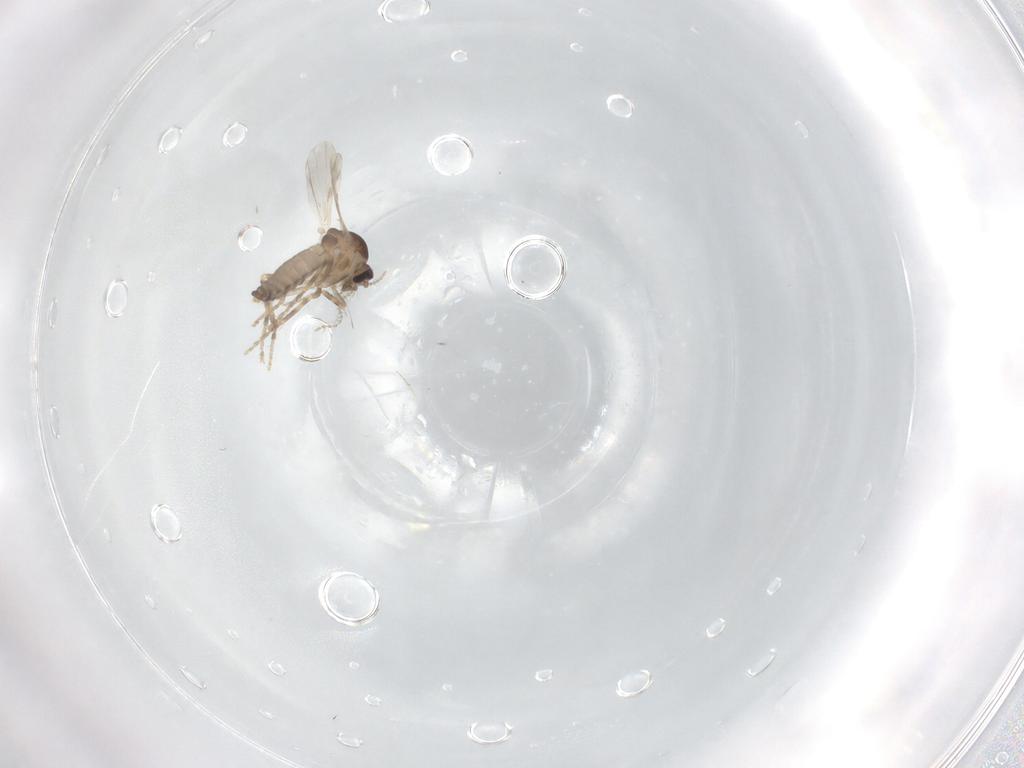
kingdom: Animalia
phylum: Arthropoda
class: Insecta
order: Diptera
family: Ceratopogonidae
